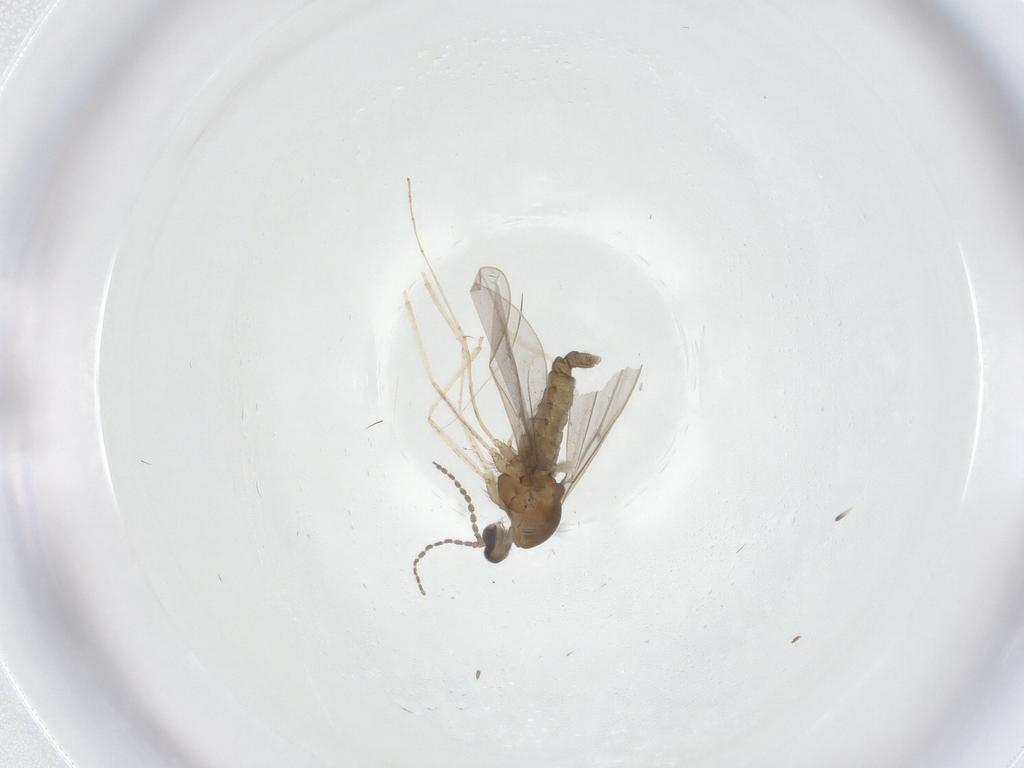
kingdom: Animalia
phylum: Arthropoda
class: Insecta
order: Diptera
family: Cecidomyiidae
